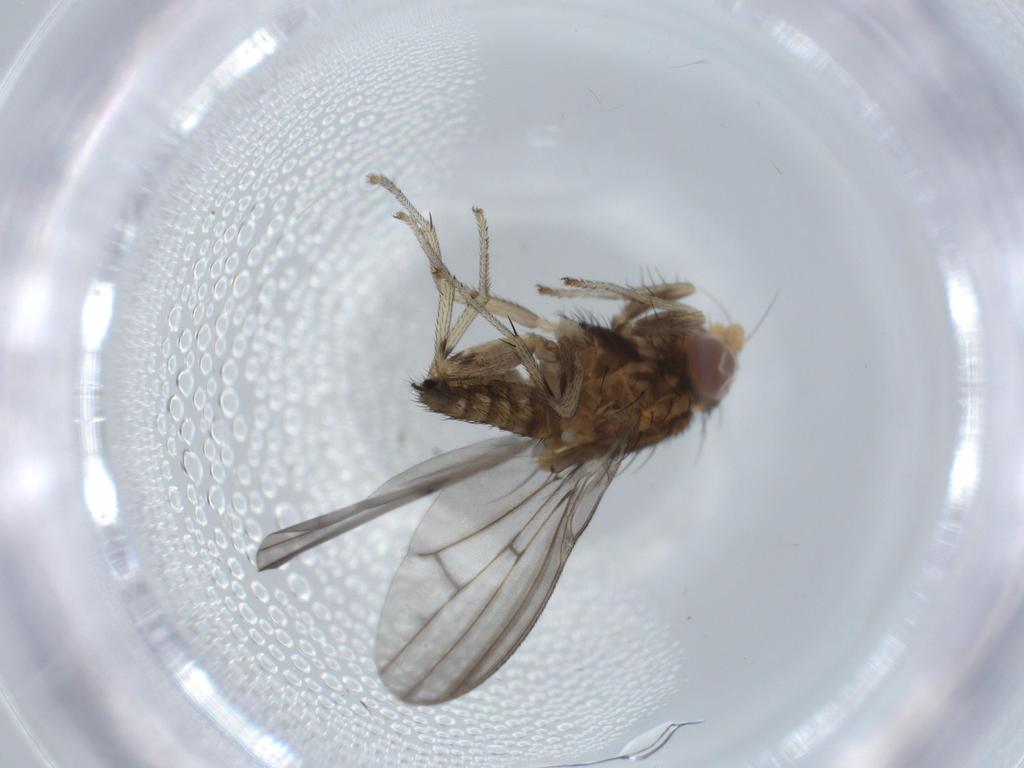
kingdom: Animalia
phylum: Arthropoda
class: Insecta
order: Diptera
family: Lauxaniidae
